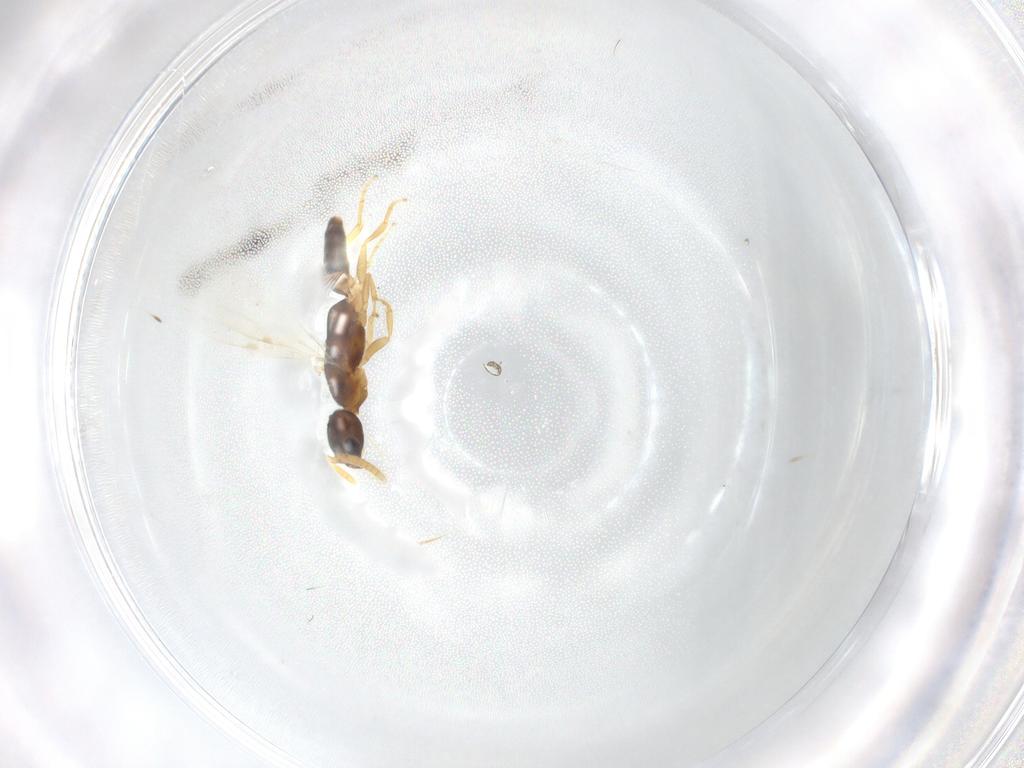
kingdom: Animalia
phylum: Arthropoda
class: Insecta
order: Hymenoptera
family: Bethylidae
